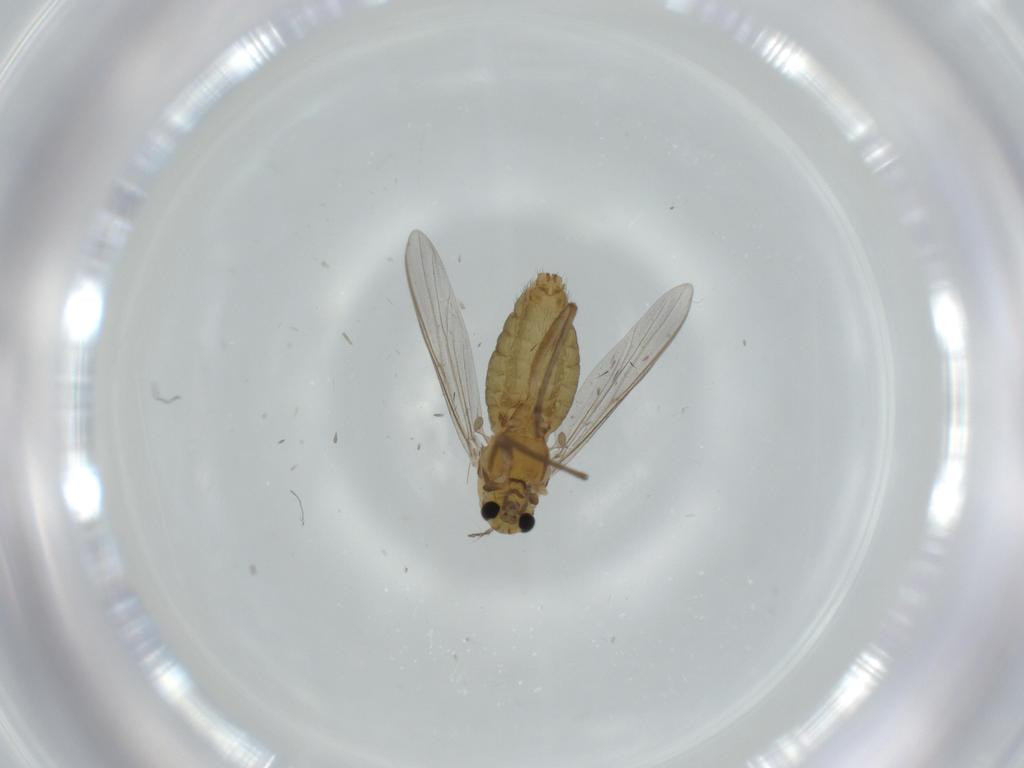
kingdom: Animalia
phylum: Arthropoda
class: Insecta
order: Diptera
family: Chironomidae
